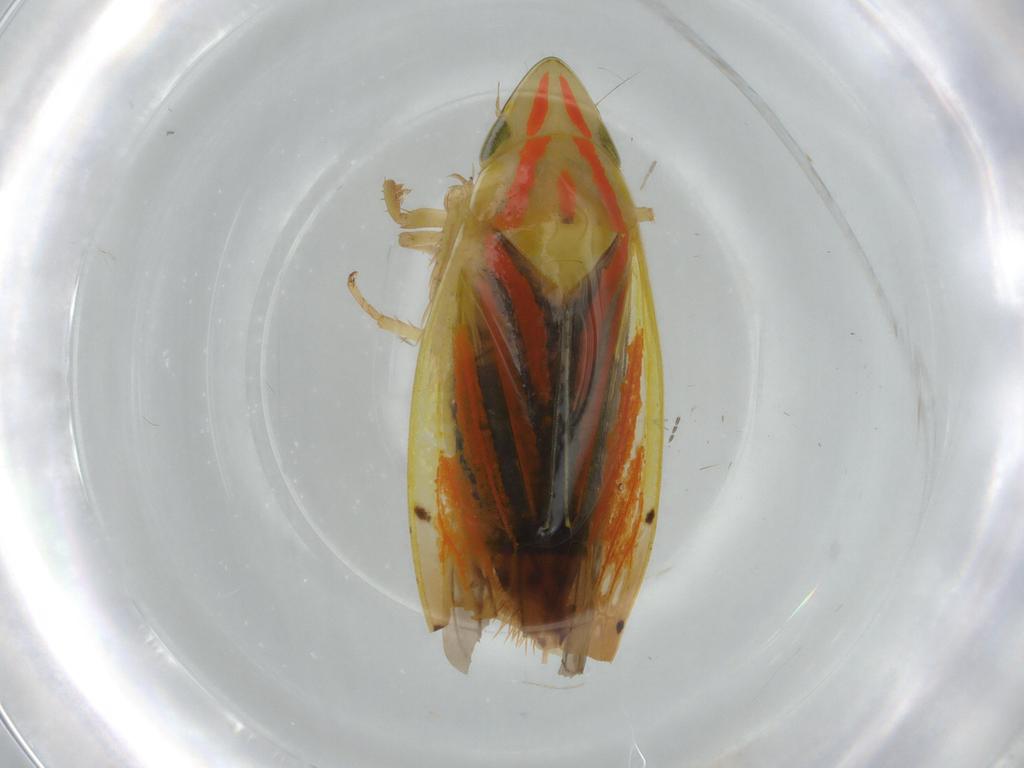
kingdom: Animalia
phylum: Arthropoda
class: Insecta
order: Hemiptera
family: Cicadellidae
